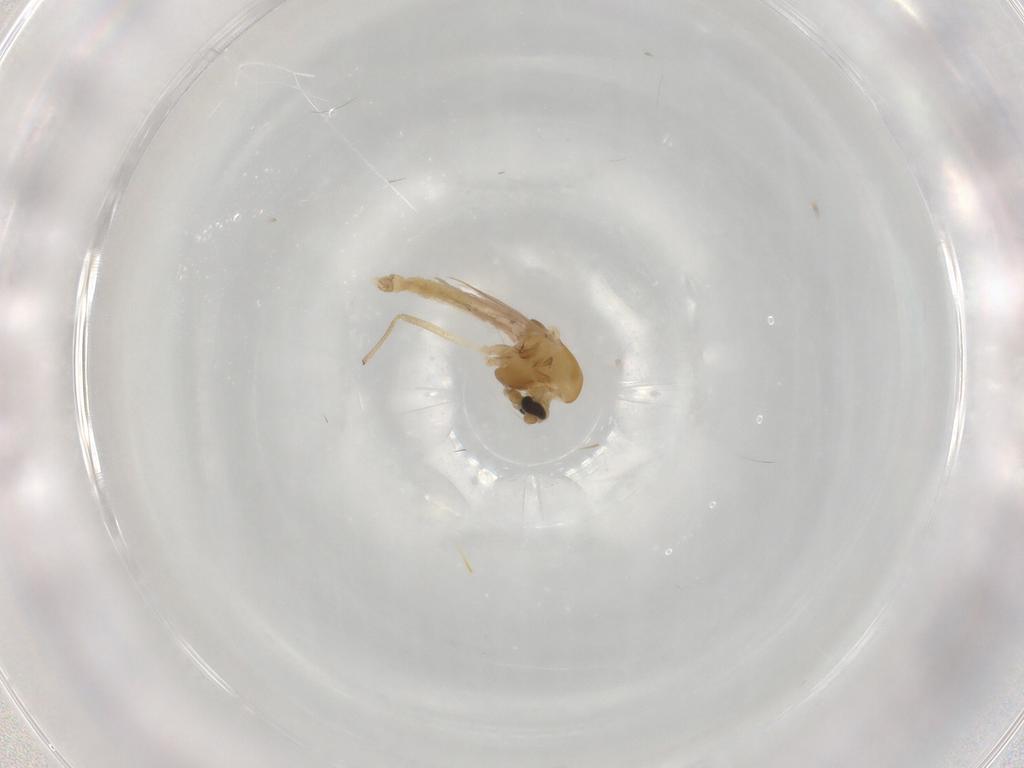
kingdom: Animalia
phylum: Arthropoda
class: Insecta
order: Diptera
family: Chironomidae
